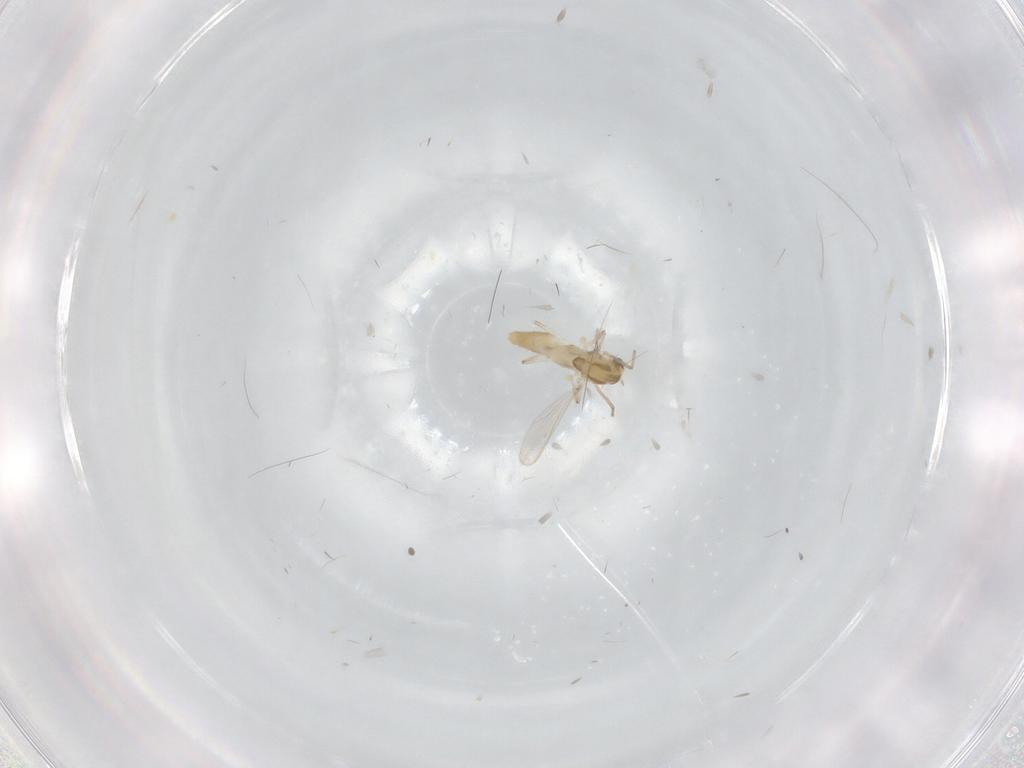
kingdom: Animalia
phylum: Arthropoda
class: Insecta
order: Diptera
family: Chironomidae
